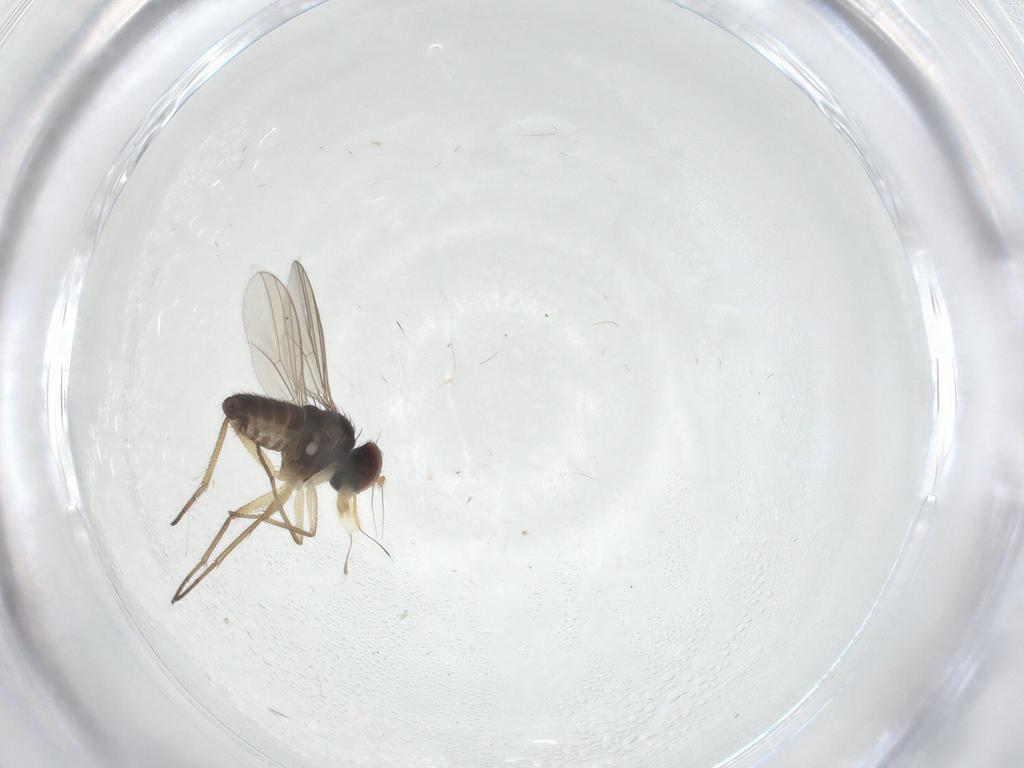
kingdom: Animalia
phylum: Arthropoda
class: Insecta
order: Diptera
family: Dolichopodidae
